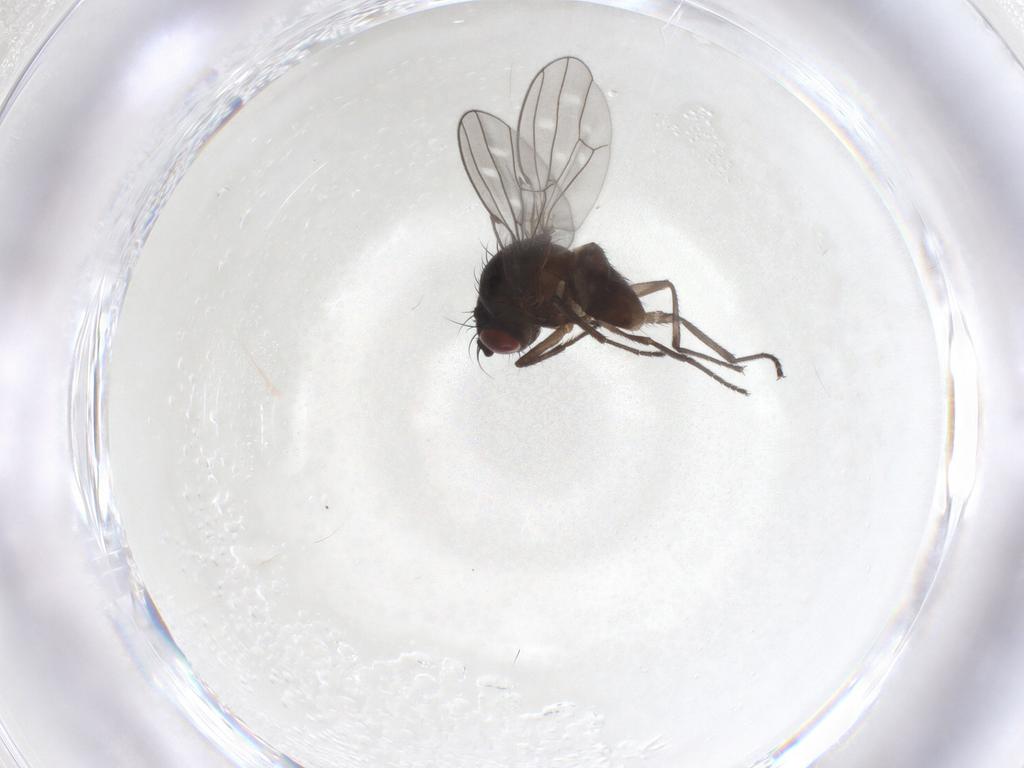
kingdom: Animalia
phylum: Arthropoda
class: Insecta
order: Diptera
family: Ephydridae
